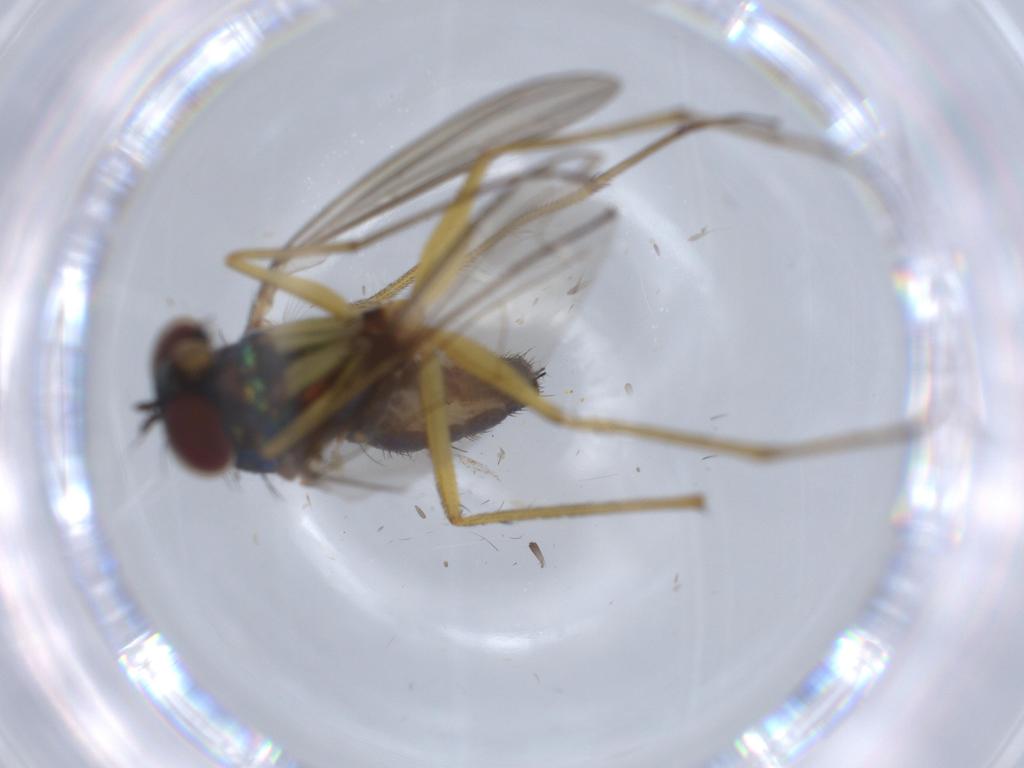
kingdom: Animalia
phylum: Arthropoda
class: Insecta
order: Diptera
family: Dolichopodidae
